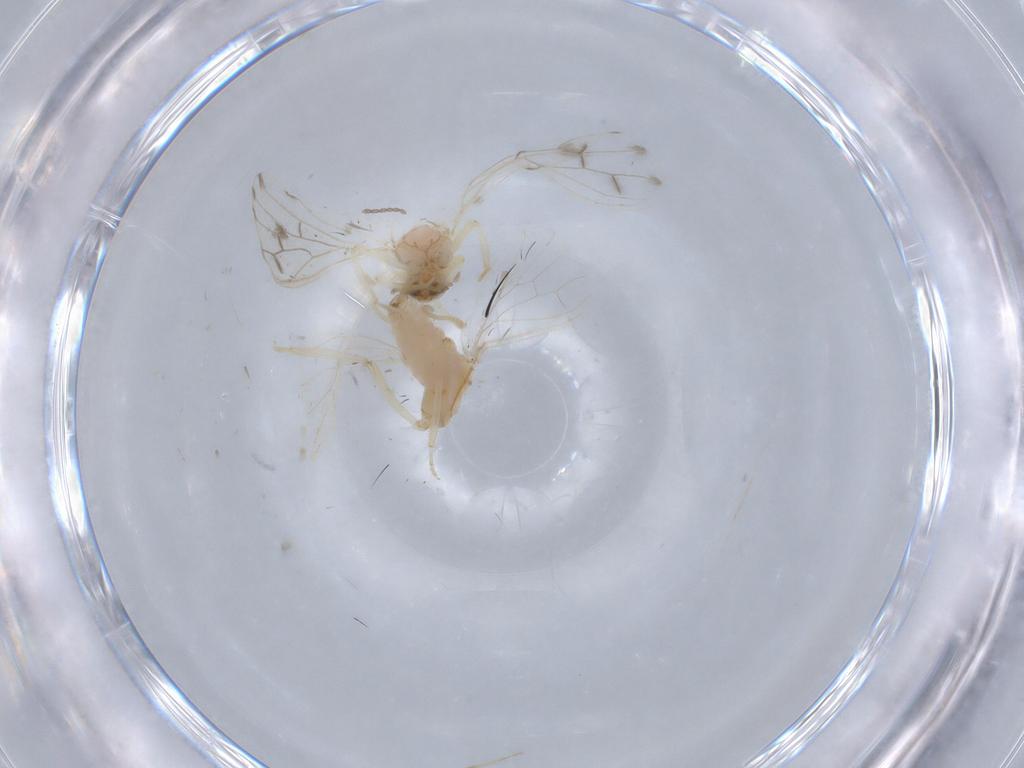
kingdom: Animalia
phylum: Arthropoda
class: Insecta
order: Neuroptera
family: Coniopterygidae
